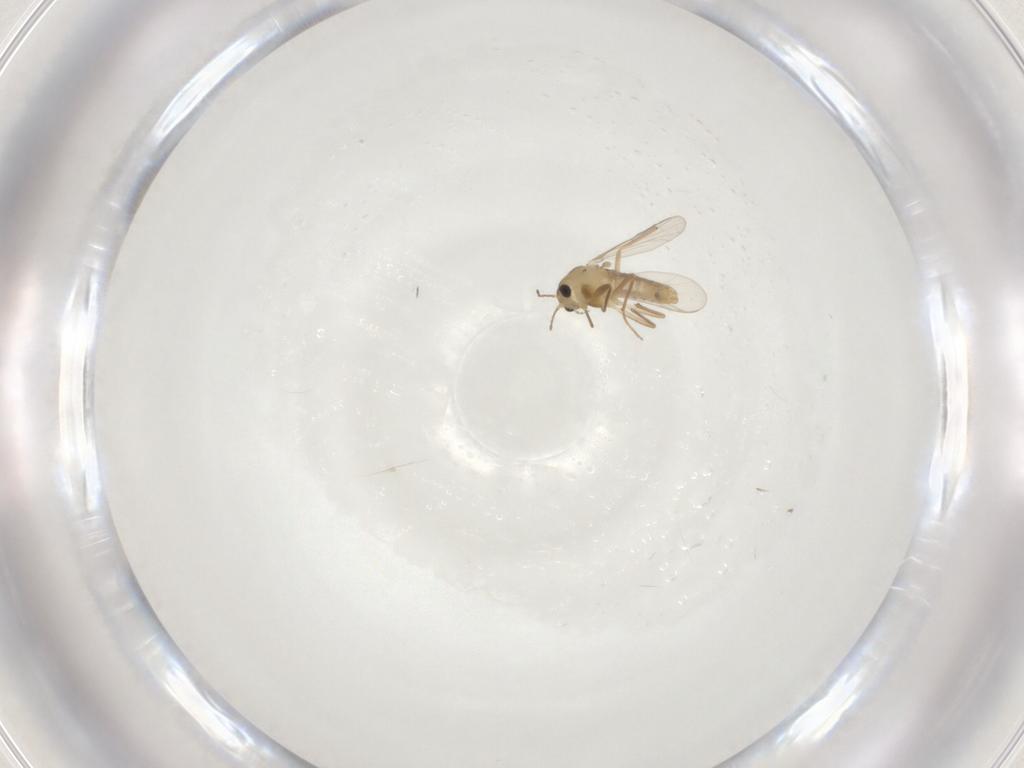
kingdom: Animalia
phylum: Arthropoda
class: Insecta
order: Diptera
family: Chironomidae
